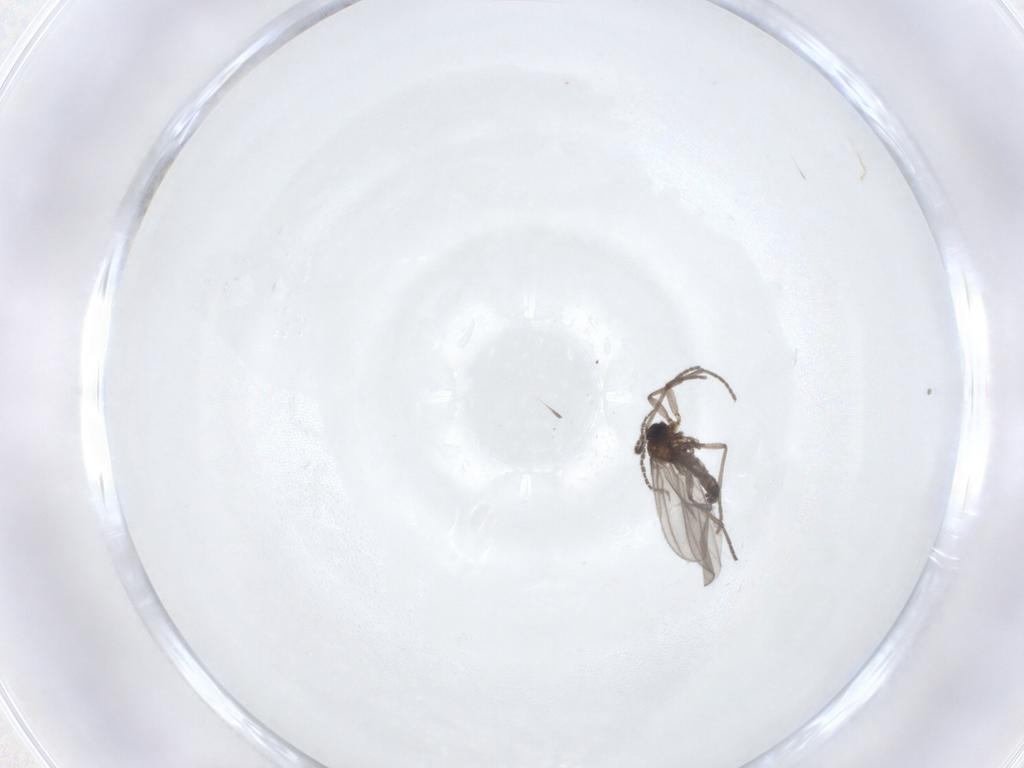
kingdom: Animalia
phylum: Arthropoda
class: Insecta
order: Diptera
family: Sciaridae
